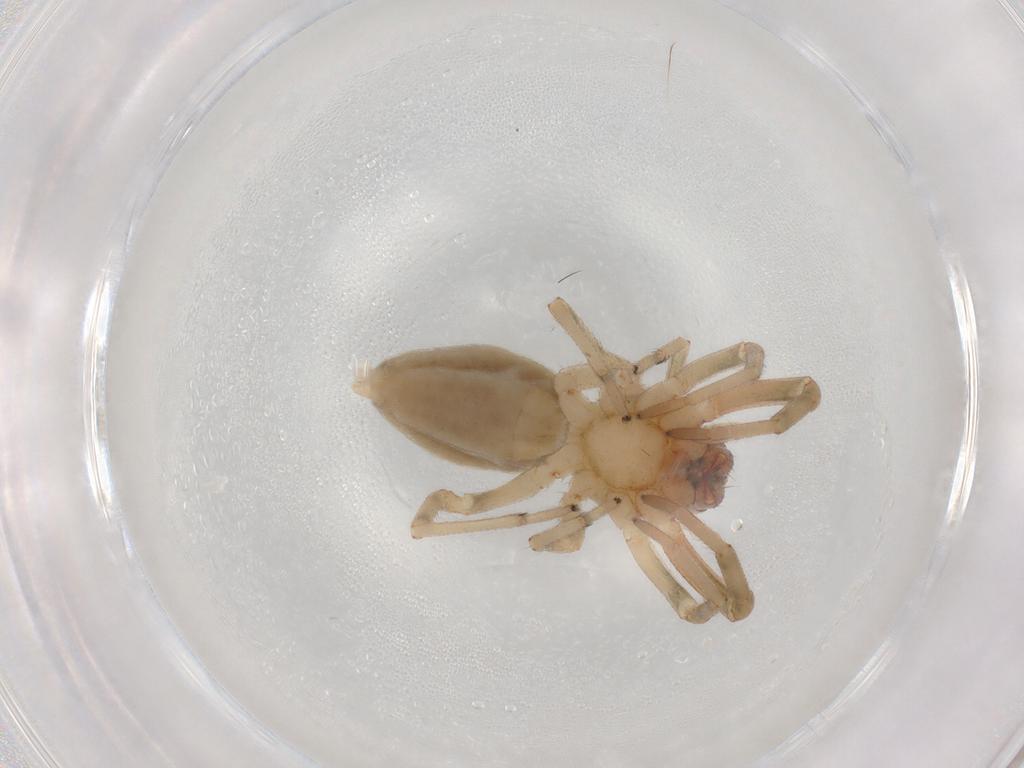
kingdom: Animalia
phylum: Arthropoda
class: Arachnida
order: Araneae
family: Trachelidae
